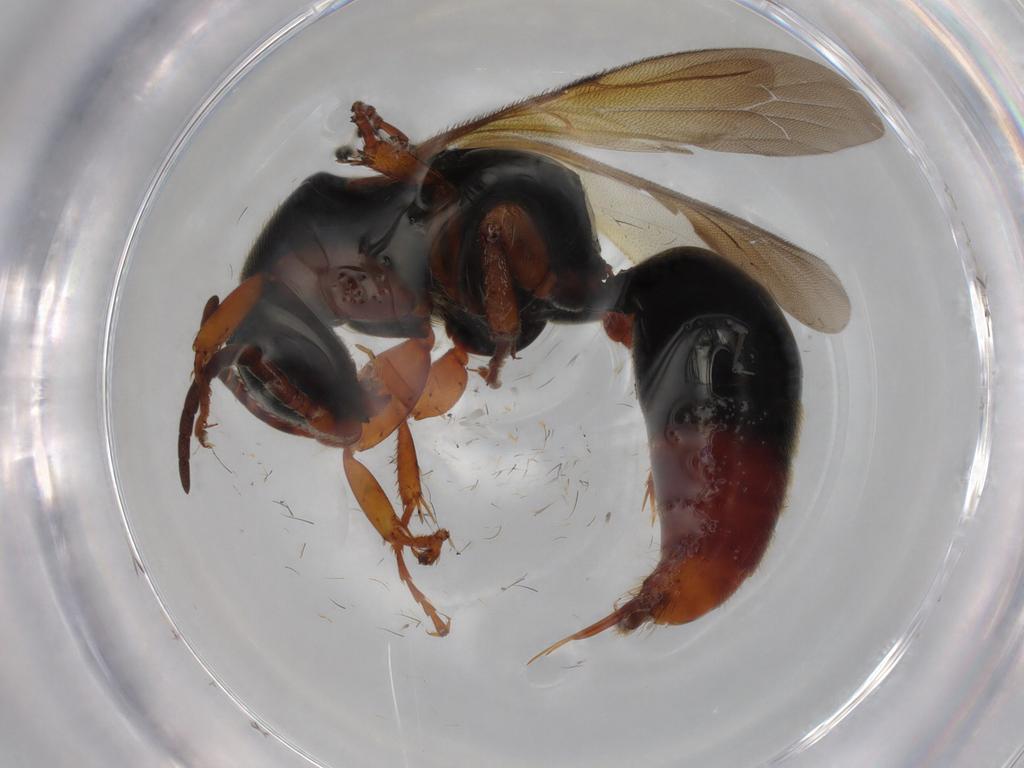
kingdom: Animalia
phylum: Arthropoda
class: Insecta
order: Hymenoptera
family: Bethylidae
